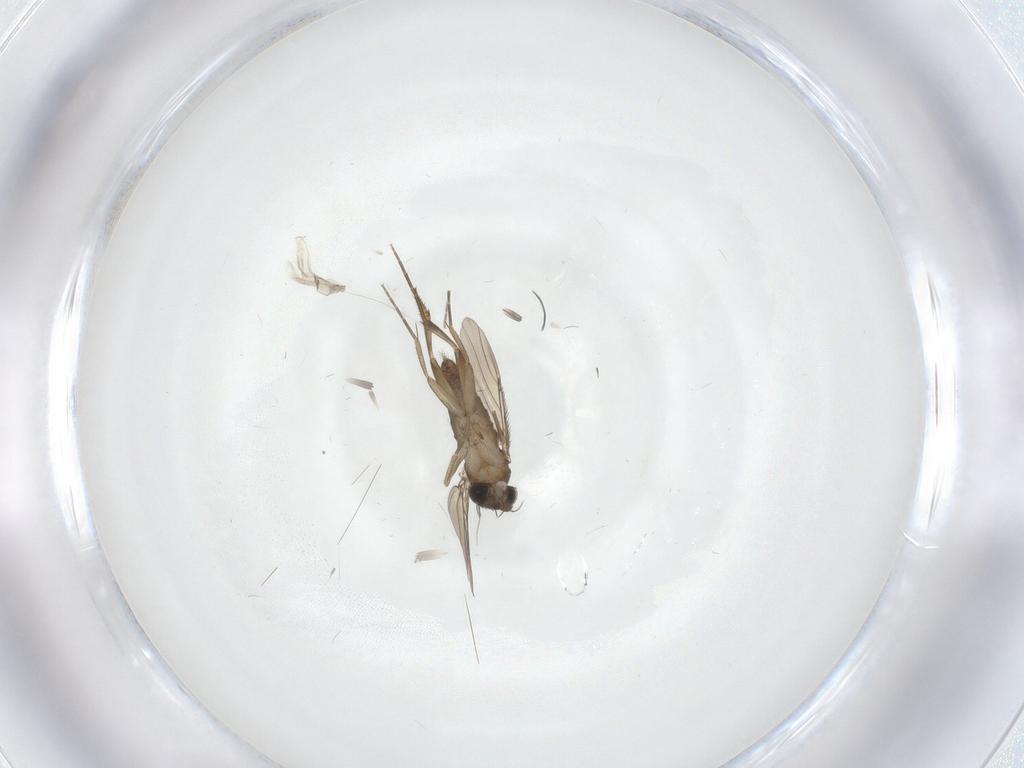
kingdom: Animalia
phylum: Arthropoda
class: Insecta
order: Diptera
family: Phoridae
